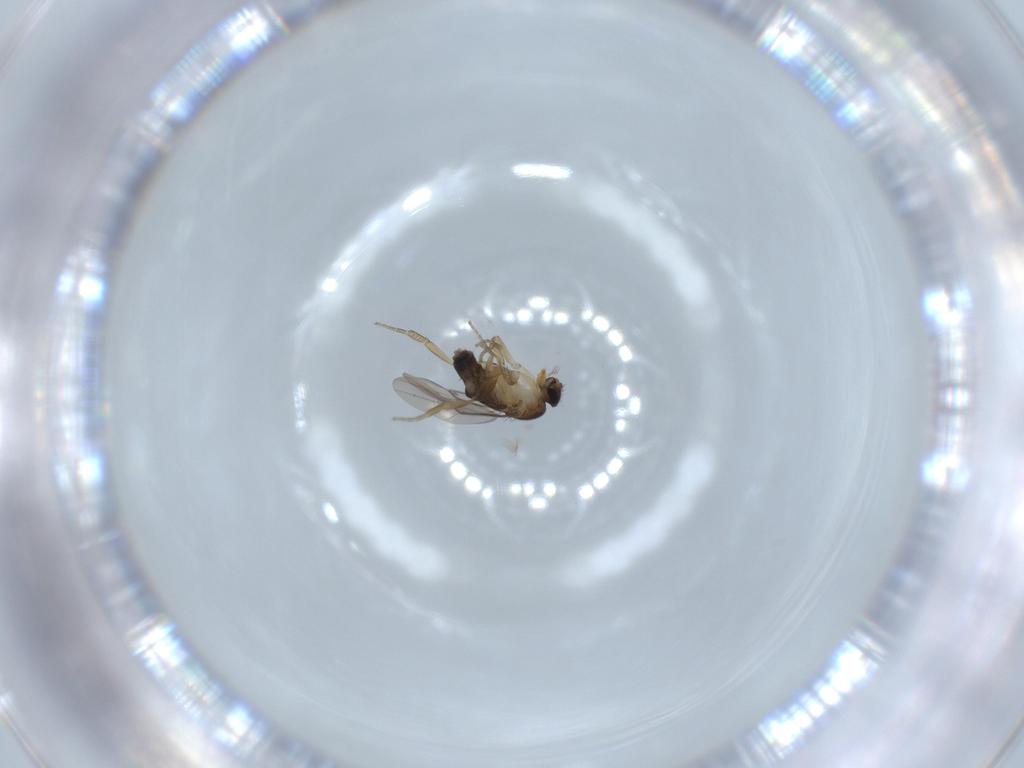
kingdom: Animalia
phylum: Arthropoda
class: Insecta
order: Diptera
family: Phoridae
